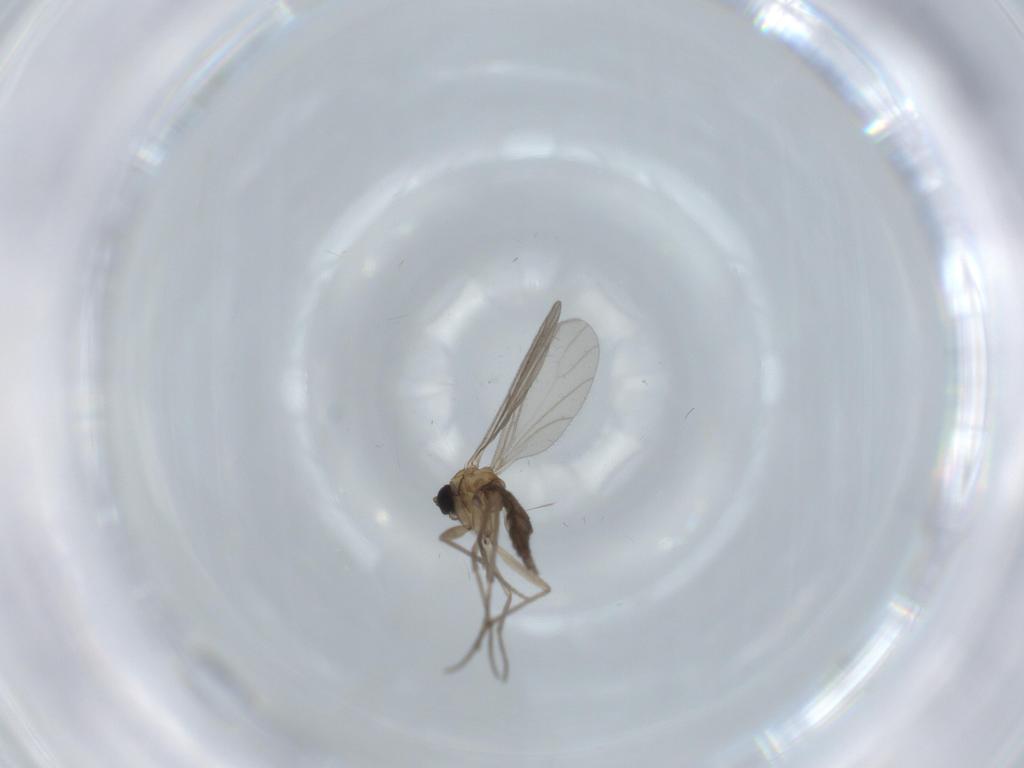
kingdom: Animalia
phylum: Arthropoda
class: Insecta
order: Diptera
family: Sciaridae
